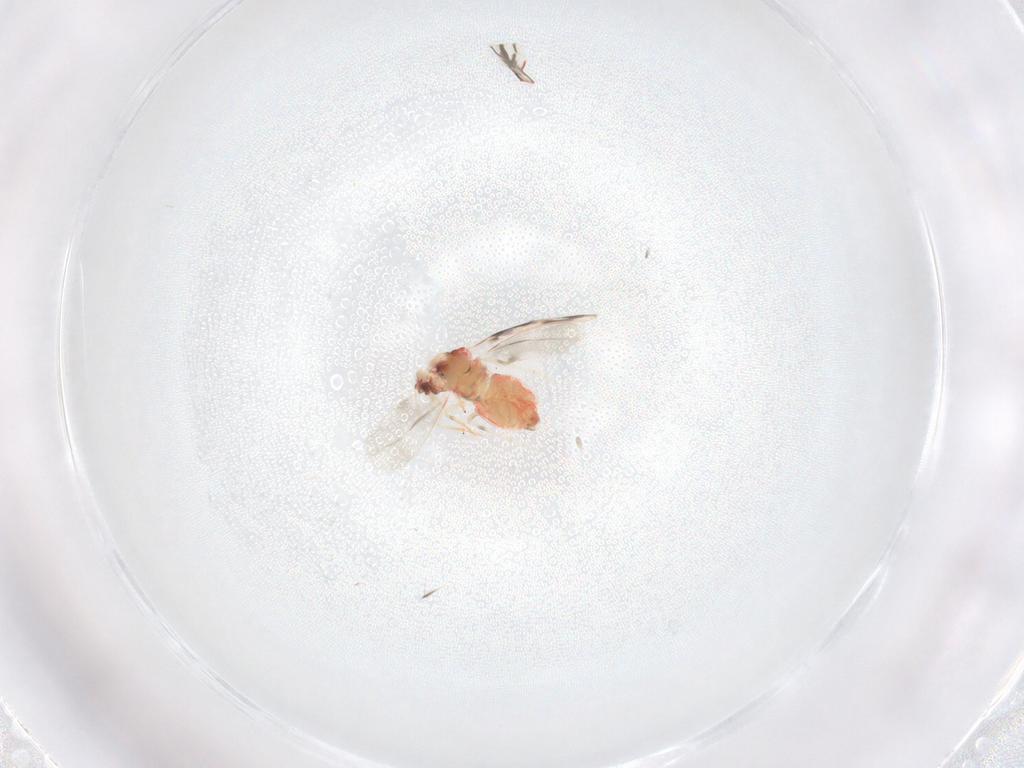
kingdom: Animalia
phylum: Arthropoda
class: Insecta
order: Hemiptera
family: Aleyrodidae
